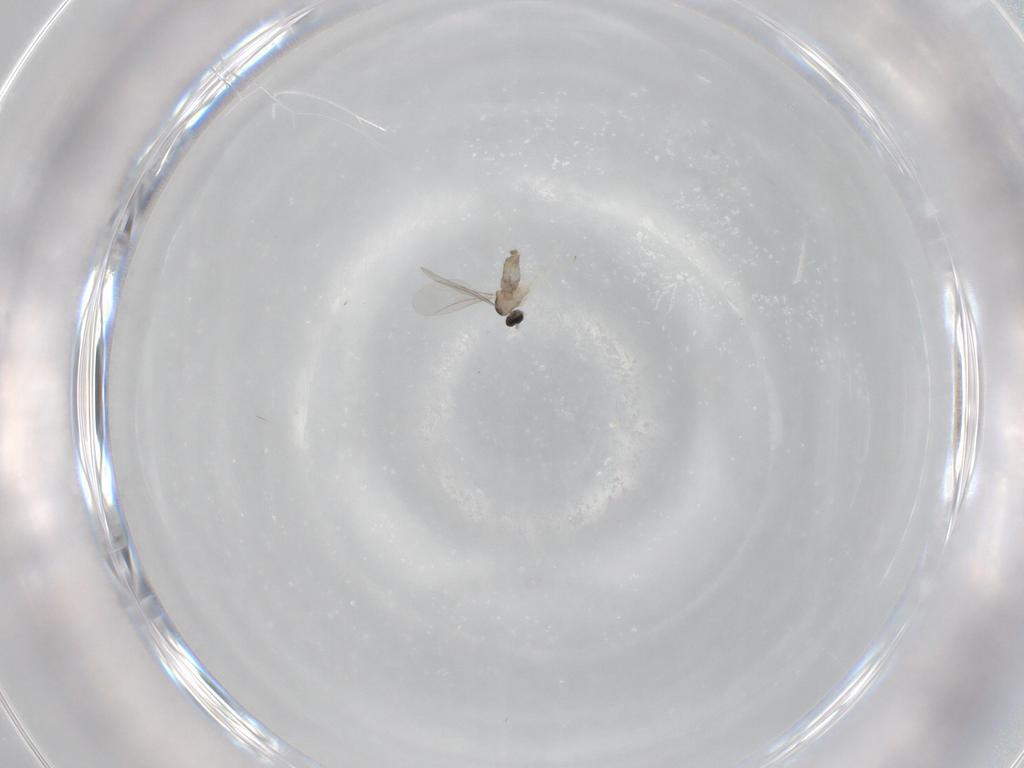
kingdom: Animalia
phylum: Arthropoda
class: Insecta
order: Diptera
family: Cecidomyiidae
